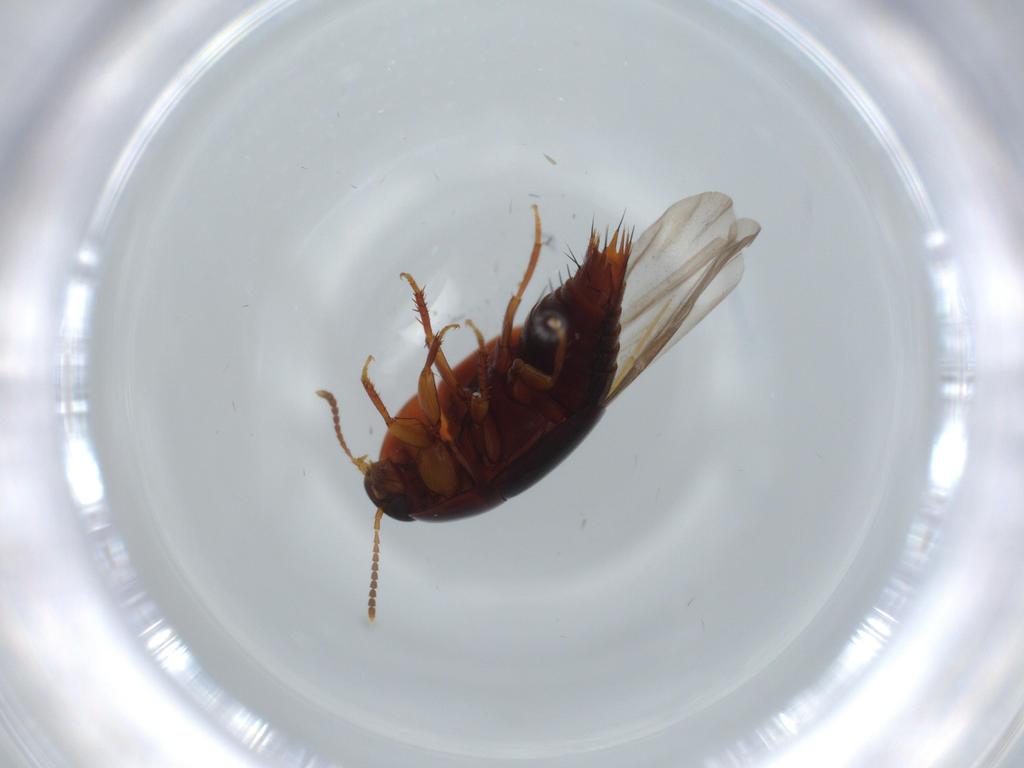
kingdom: Animalia
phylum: Arthropoda
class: Insecta
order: Coleoptera
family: Staphylinidae
